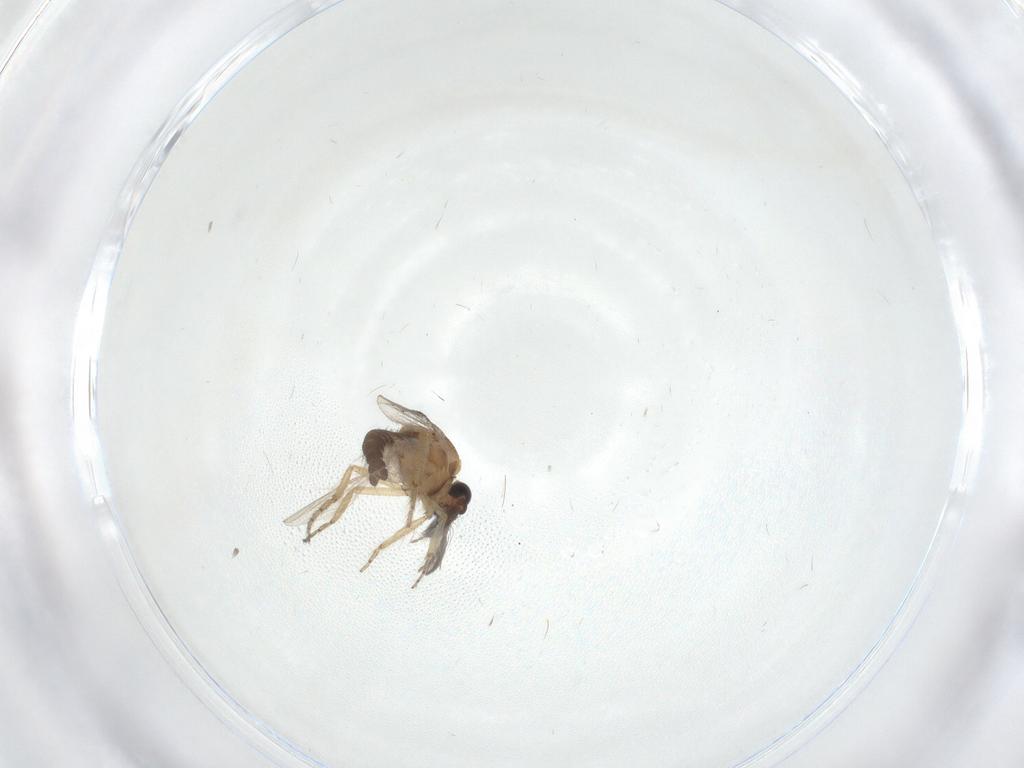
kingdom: Animalia
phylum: Arthropoda
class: Insecta
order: Diptera
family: Ceratopogonidae
